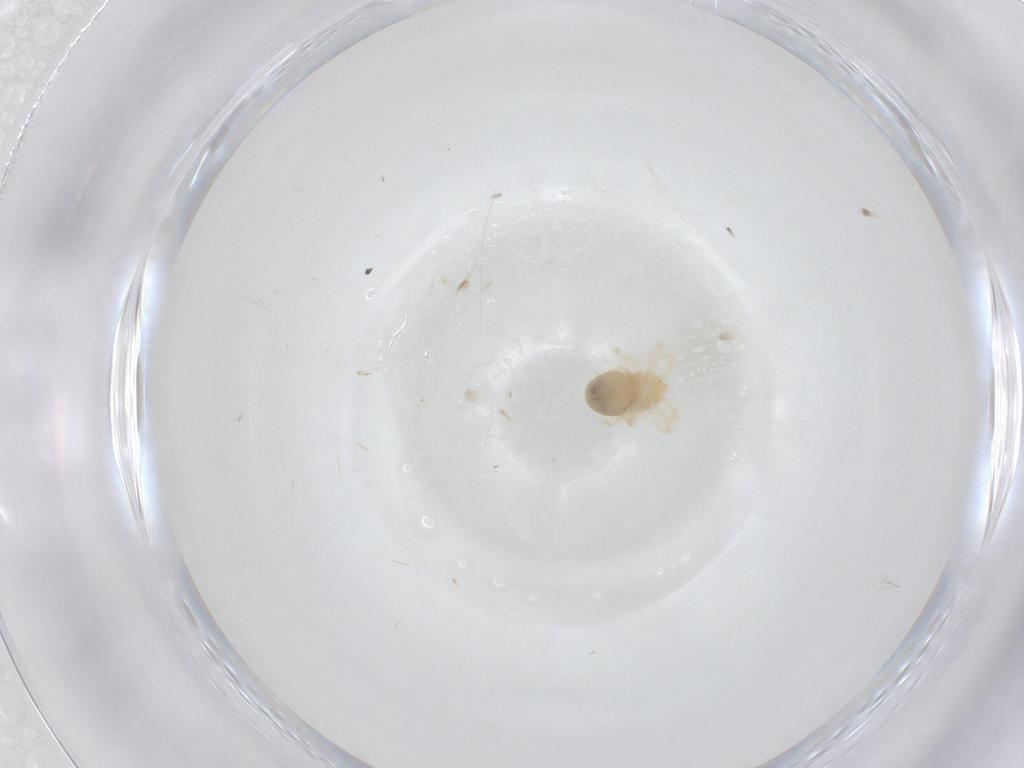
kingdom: Animalia
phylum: Arthropoda
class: Arachnida
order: Trombidiformes
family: Anystidae
